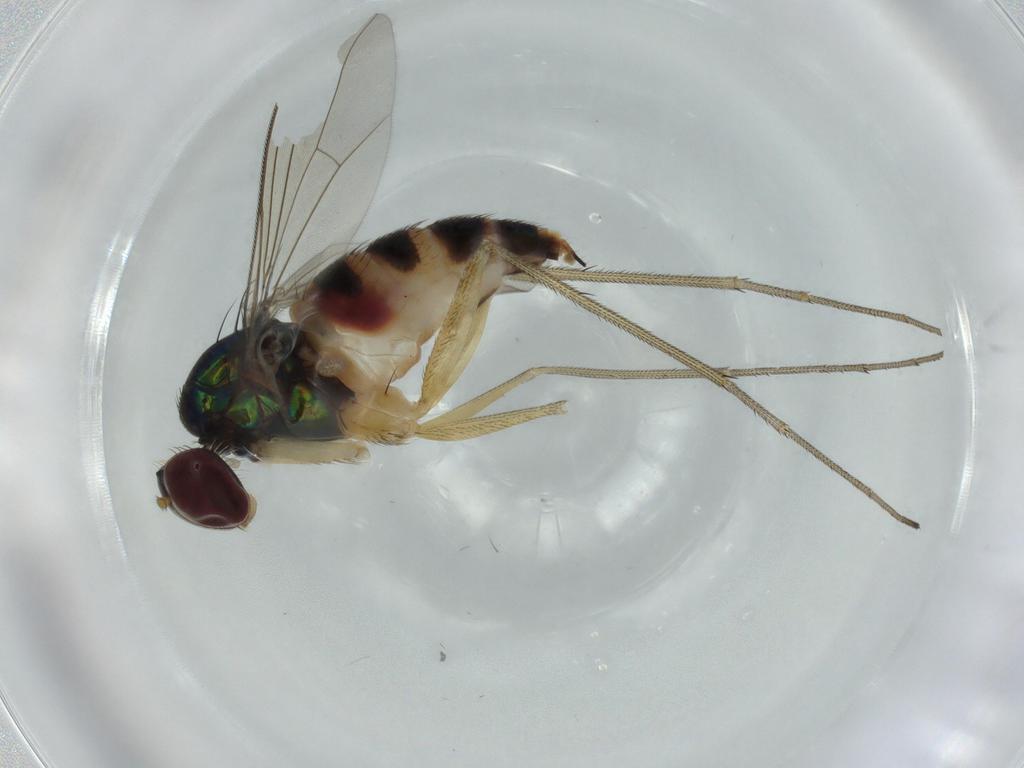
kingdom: Animalia
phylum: Arthropoda
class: Insecta
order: Diptera
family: Dolichopodidae
